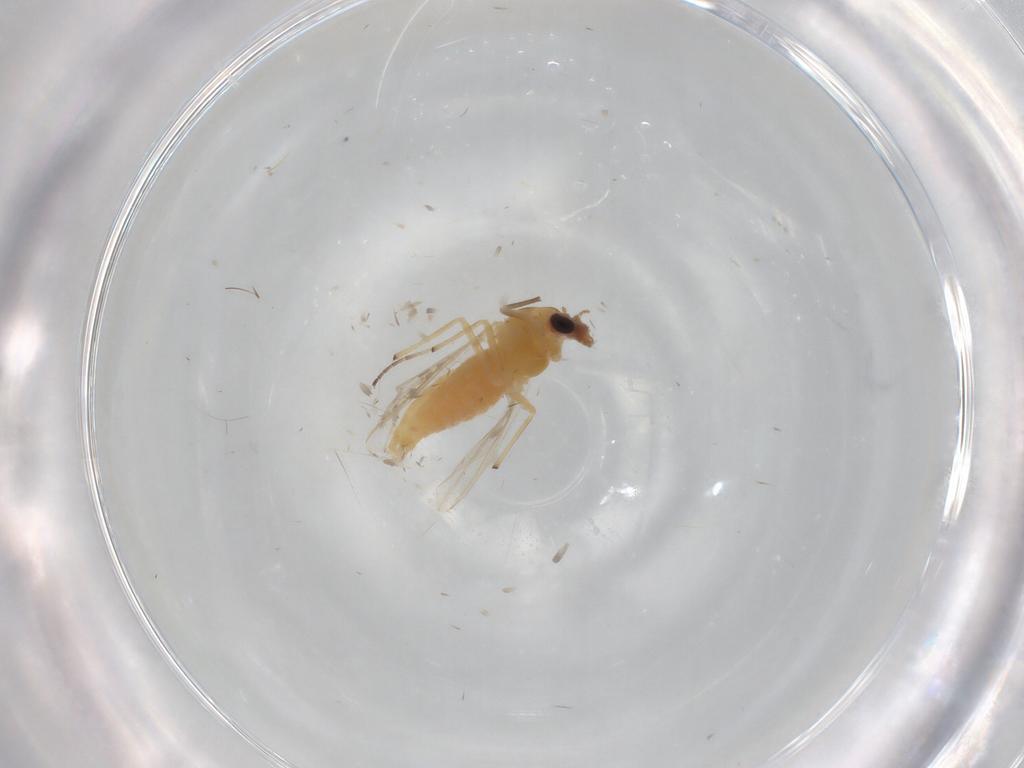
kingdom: Animalia
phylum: Arthropoda
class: Insecta
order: Diptera
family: Chironomidae
